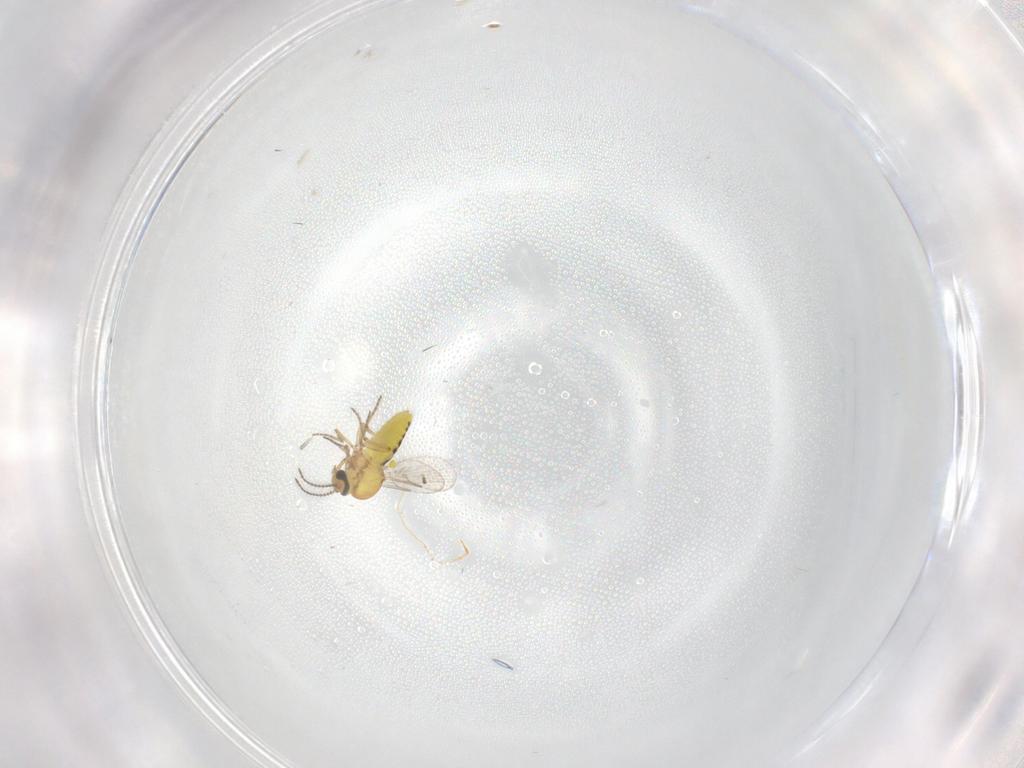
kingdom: Animalia
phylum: Arthropoda
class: Insecta
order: Diptera
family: Ceratopogonidae
